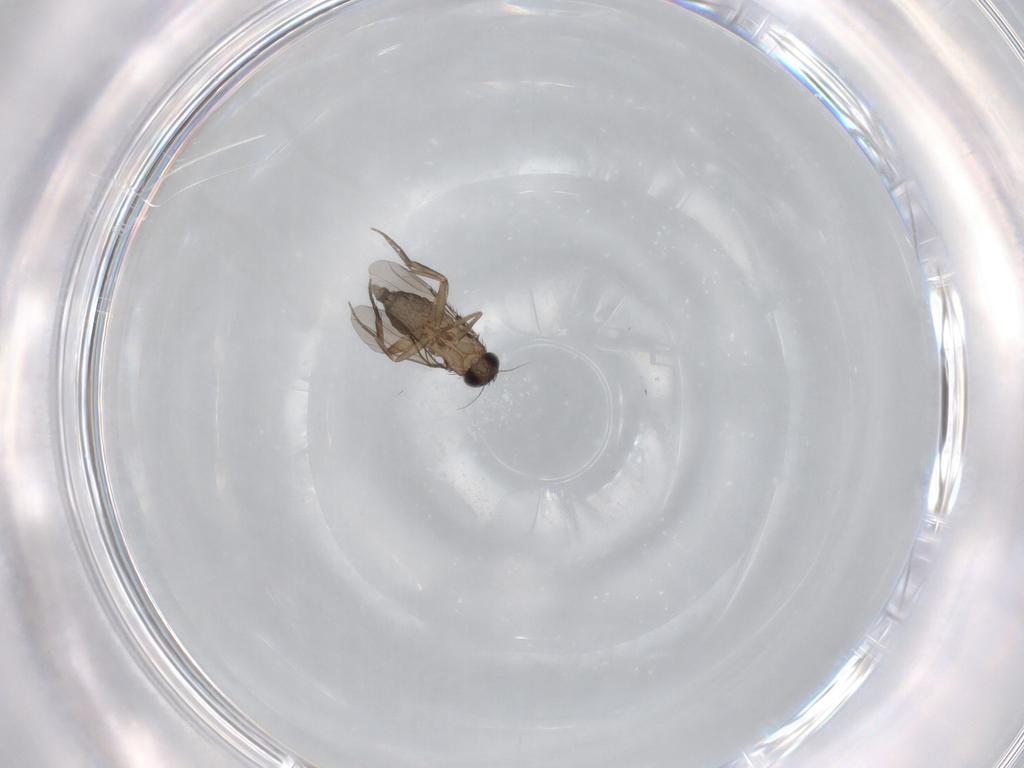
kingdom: Animalia
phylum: Arthropoda
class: Insecta
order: Diptera
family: Phoridae
